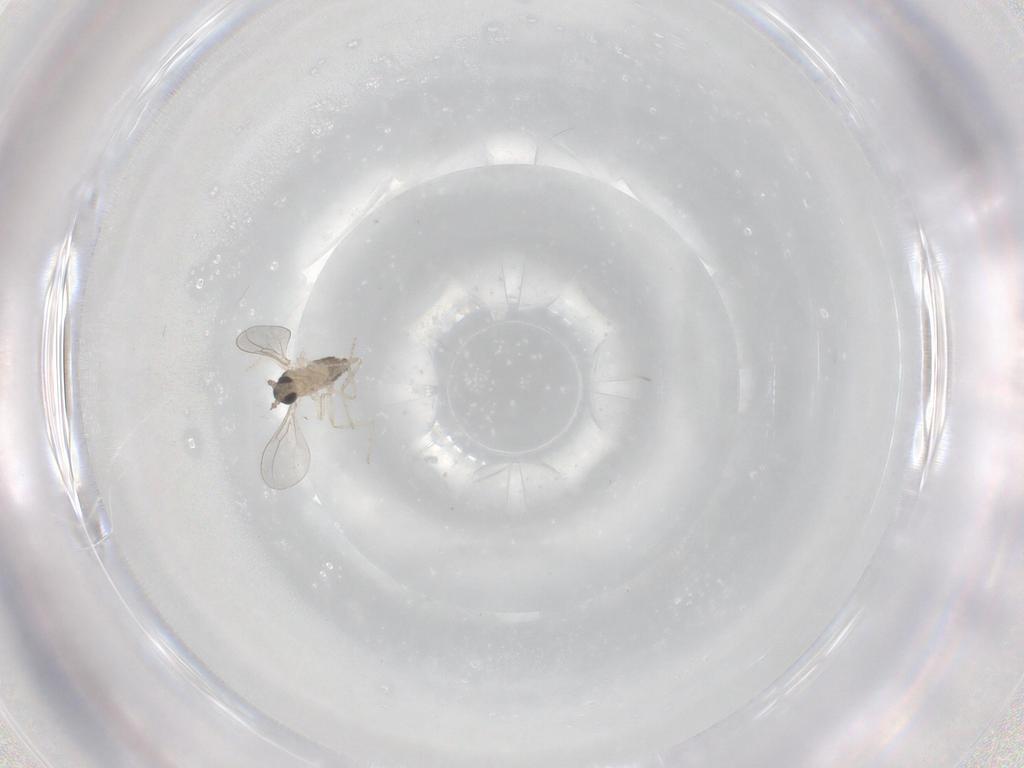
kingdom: Animalia
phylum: Arthropoda
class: Insecta
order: Diptera
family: Cecidomyiidae
